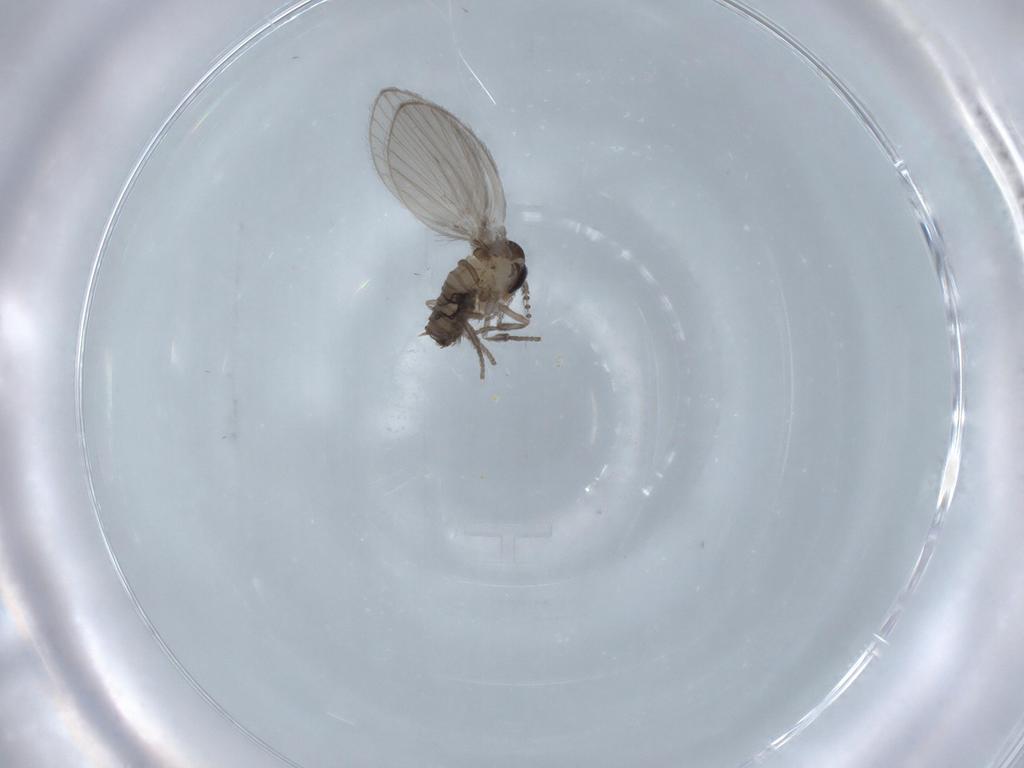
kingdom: Animalia
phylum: Arthropoda
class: Insecta
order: Diptera
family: Psychodidae
